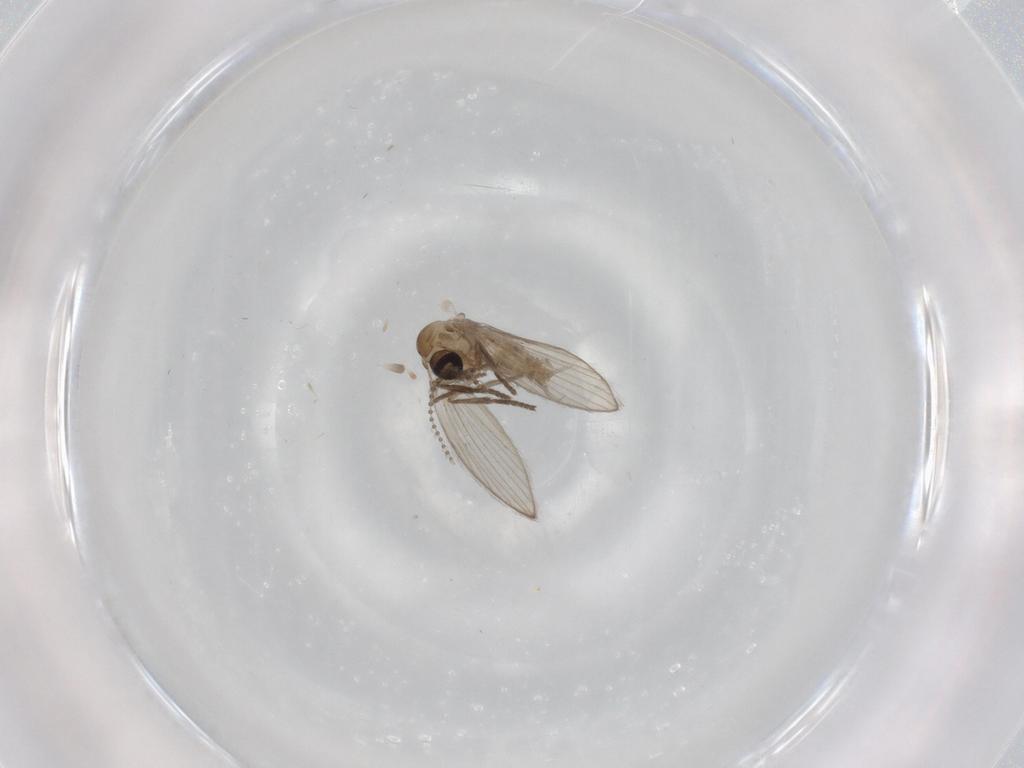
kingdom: Animalia
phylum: Arthropoda
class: Insecta
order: Diptera
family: Psychodidae
